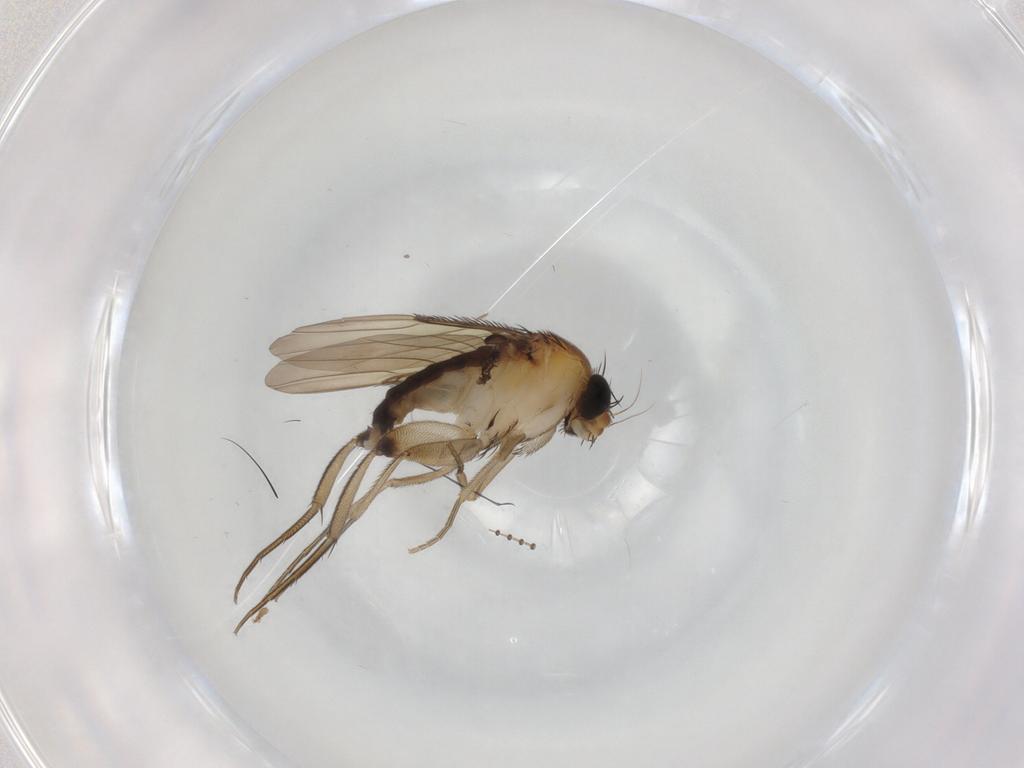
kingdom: Animalia
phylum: Arthropoda
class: Insecta
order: Diptera
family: Phoridae
